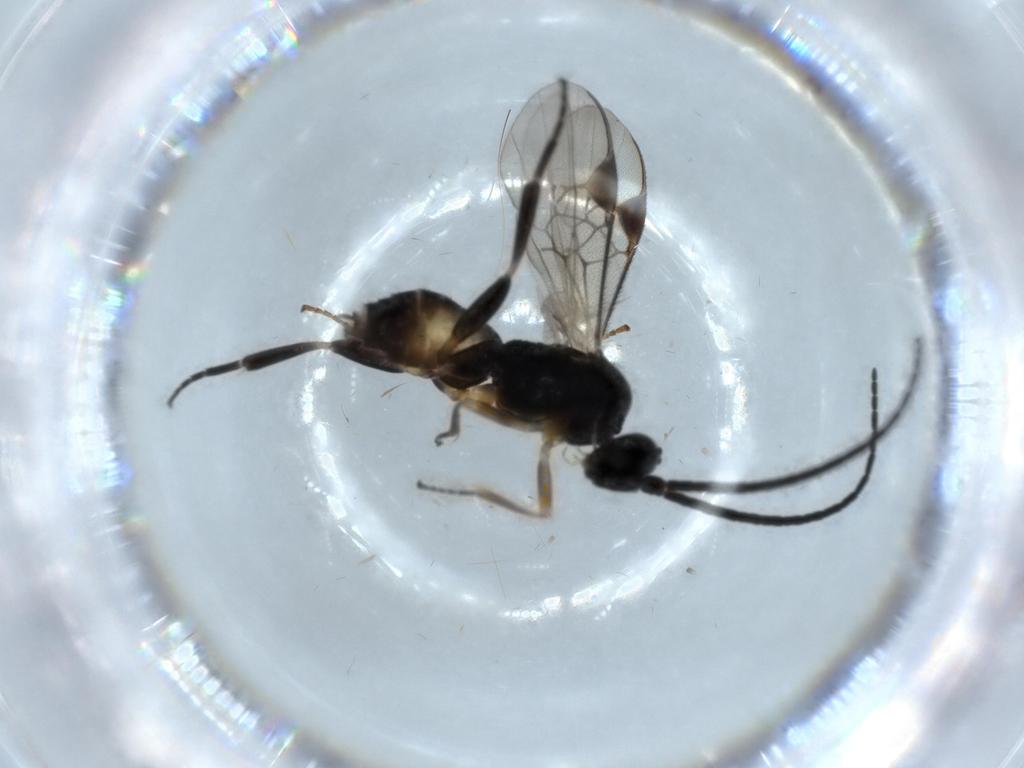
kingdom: Animalia
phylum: Arthropoda
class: Insecta
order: Hymenoptera
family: Braconidae
